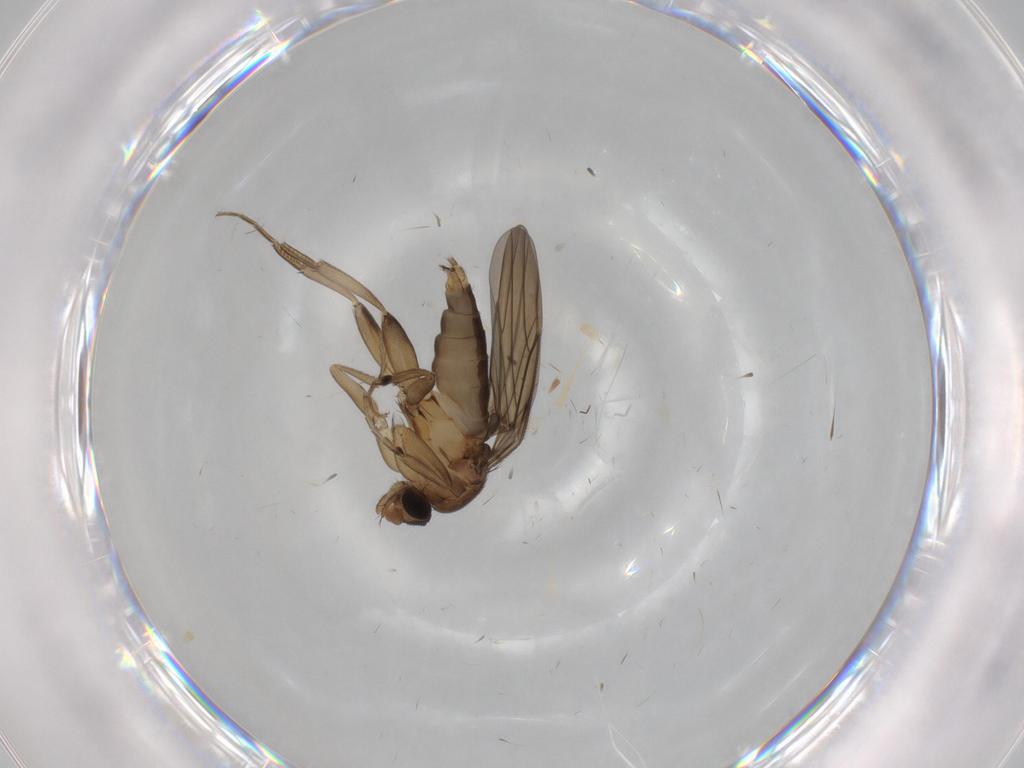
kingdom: Animalia
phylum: Arthropoda
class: Insecta
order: Diptera
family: Phoridae
